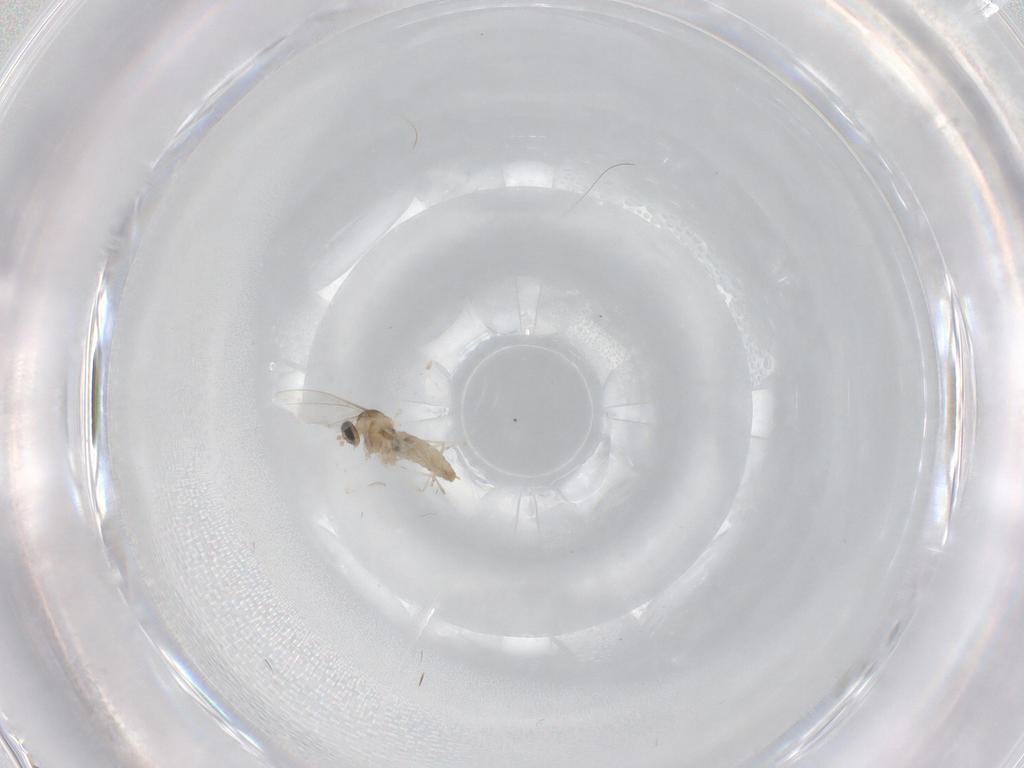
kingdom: Animalia
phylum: Arthropoda
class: Insecta
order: Diptera
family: Cecidomyiidae
